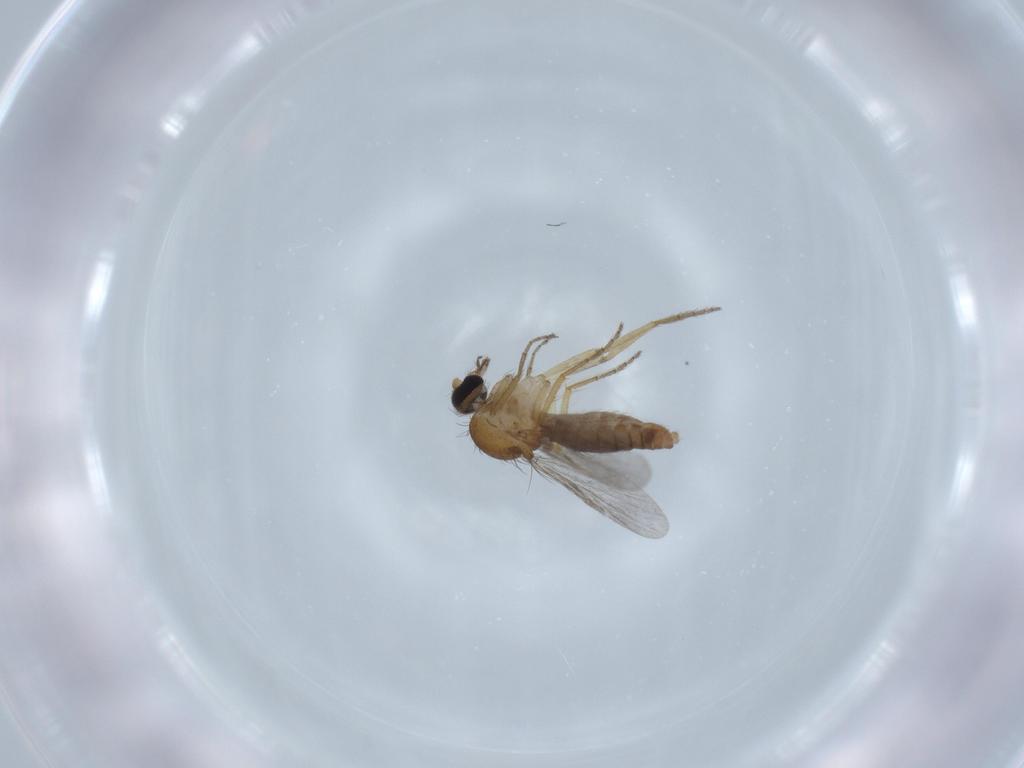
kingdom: Animalia
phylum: Arthropoda
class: Insecta
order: Diptera
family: Ceratopogonidae
